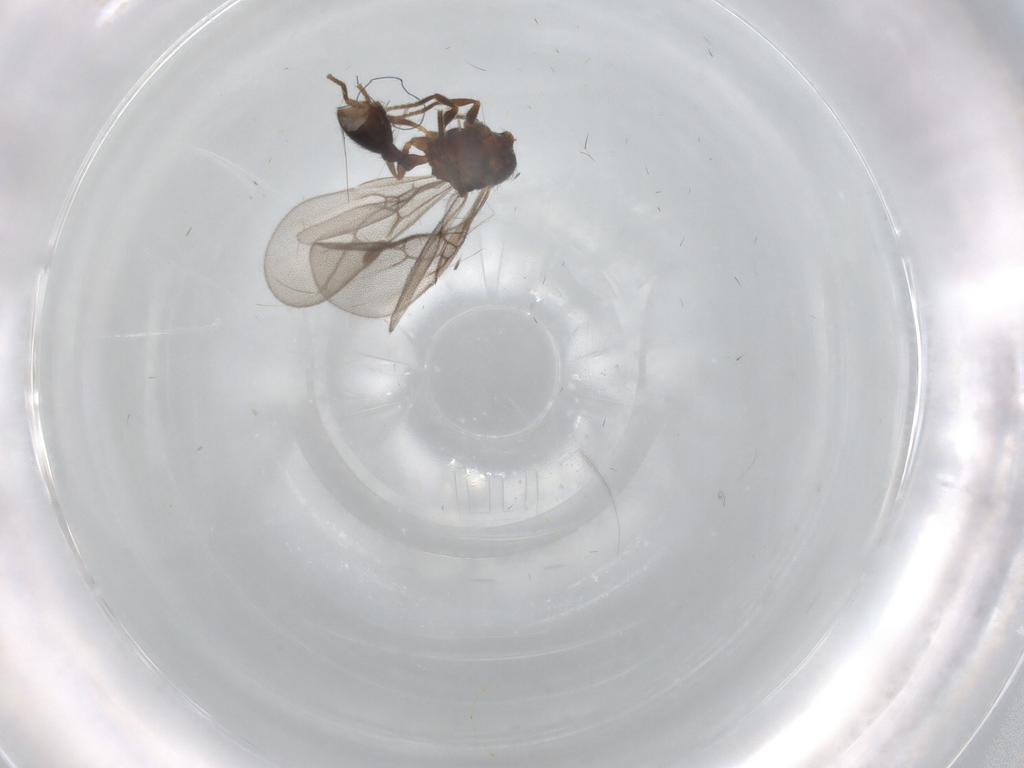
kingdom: Animalia
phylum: Arthropoda
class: Insecta
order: Hymenoptera
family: Formicidae
